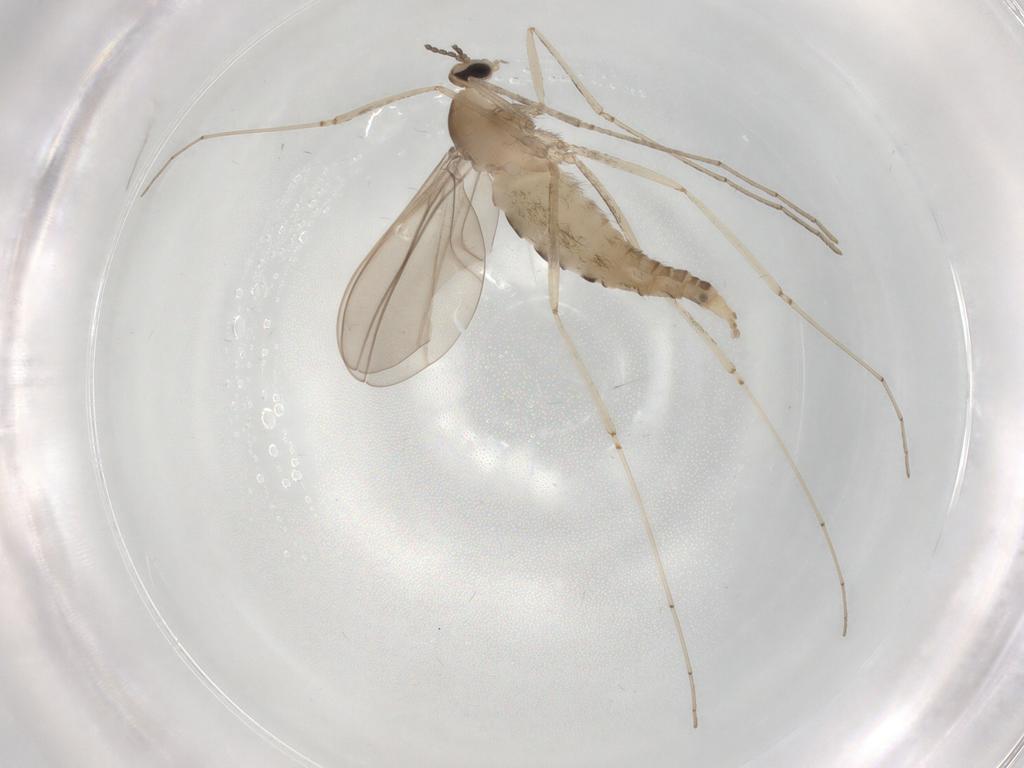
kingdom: Animalia
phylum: Arthropoda
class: Insecta
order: Diptera
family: Cecidomyiidae
